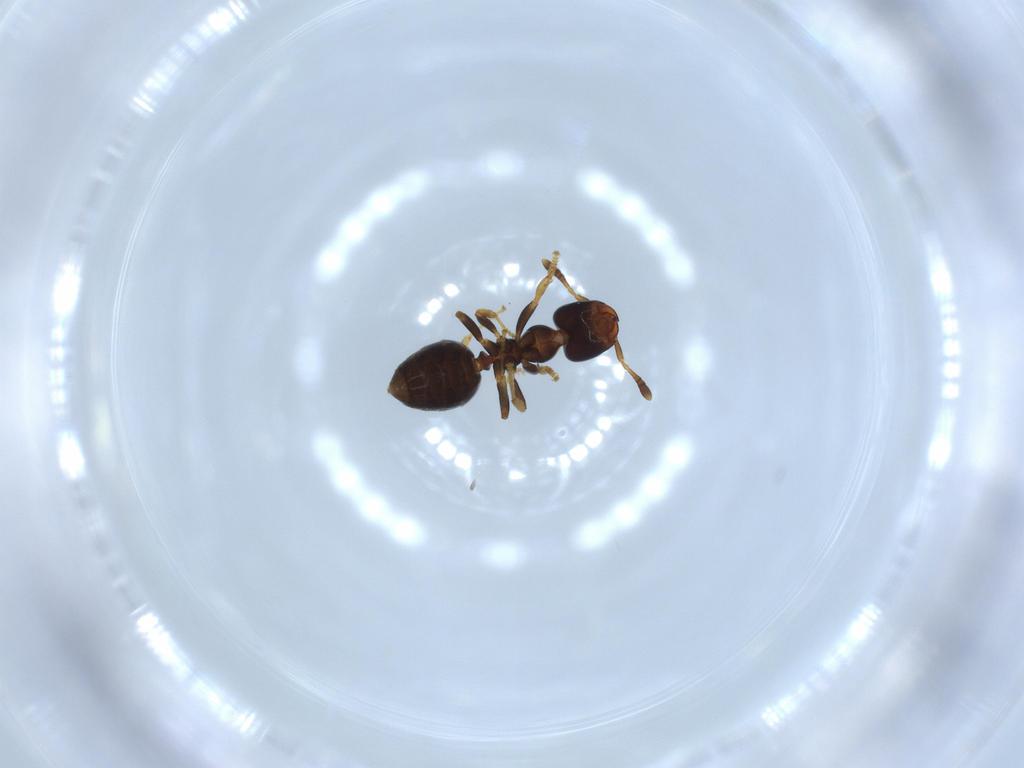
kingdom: Animalia
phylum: Arthropoda
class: Insecta
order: Hymenoptera
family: Formicidae
